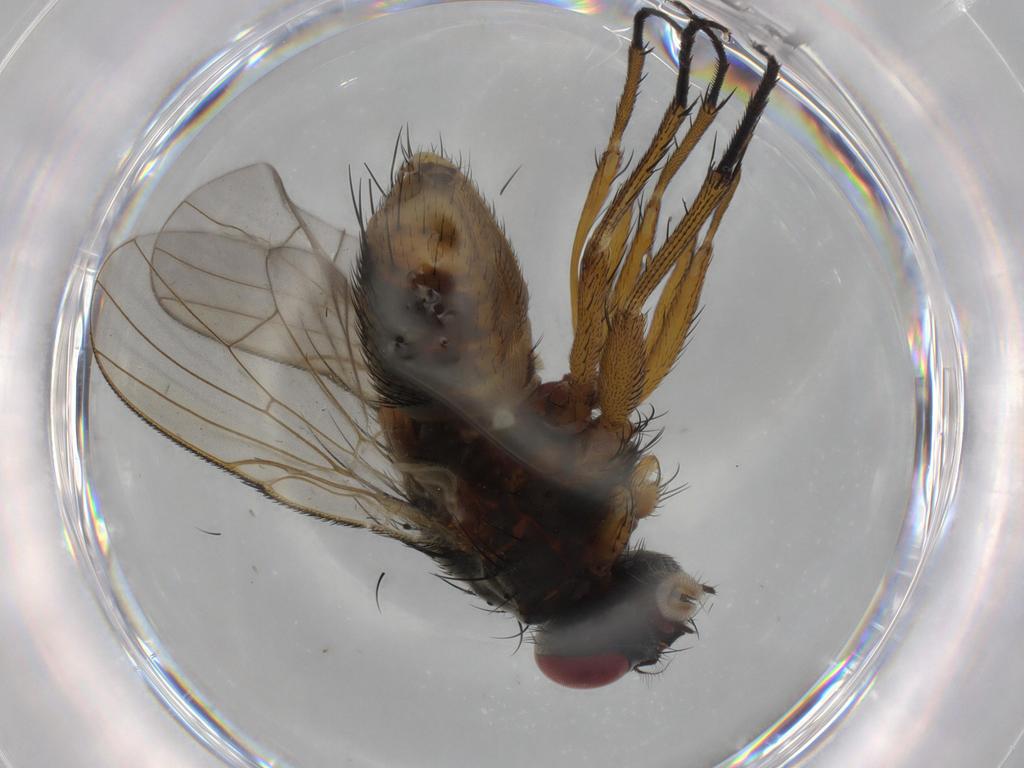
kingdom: Animalia
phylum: Arthropoda
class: Insecta
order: Diptera
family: Muscidae
